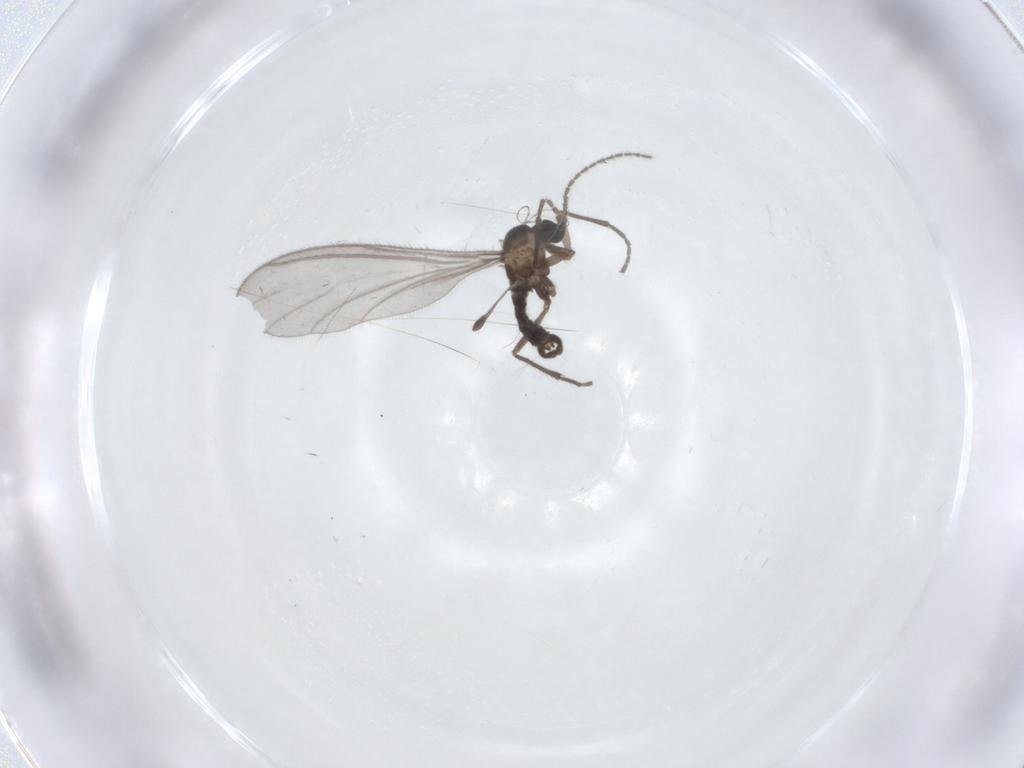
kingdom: Animalia
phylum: Arthropoda
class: Insecta
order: Diptera
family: Sciaridae
